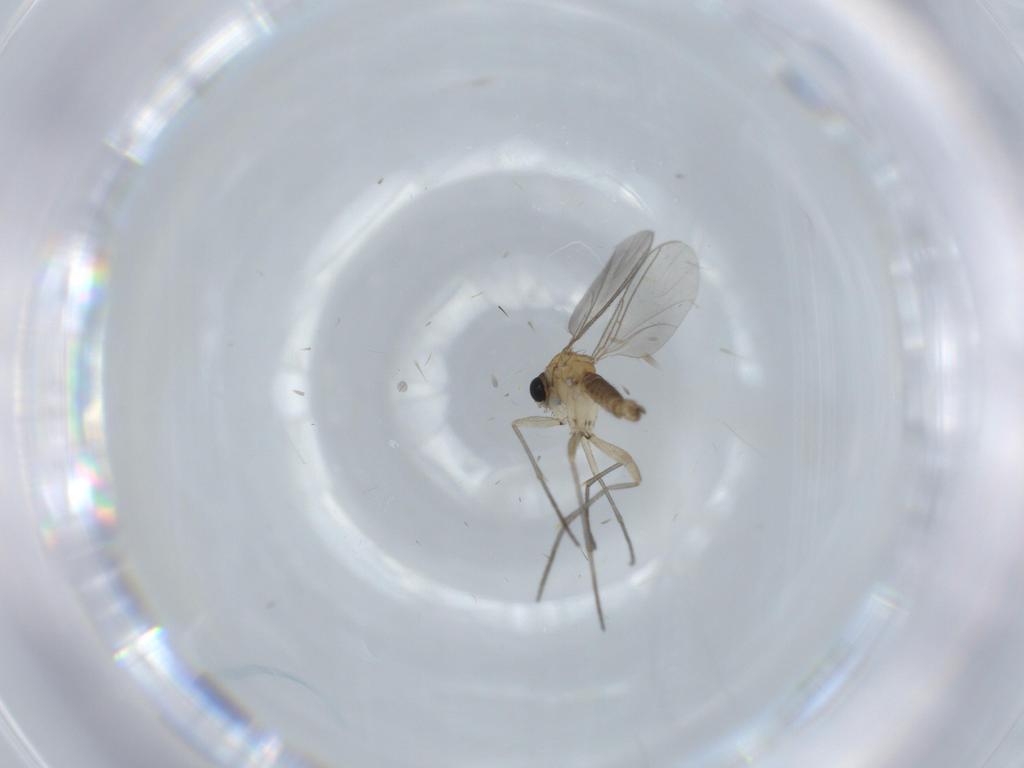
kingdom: Animalia
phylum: Arthropoda
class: Insecta
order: Diptera
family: Sciaridae
